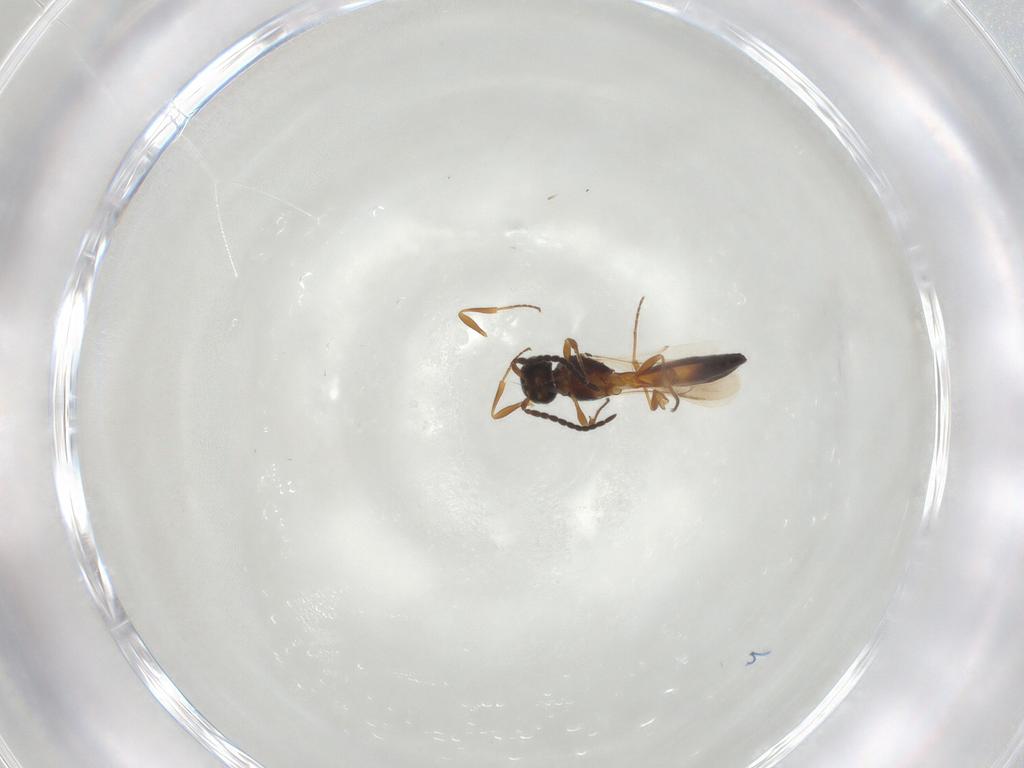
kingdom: Animalia
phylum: Arthropoda
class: Insecta
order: Hymenoptera
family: Scelionidae
